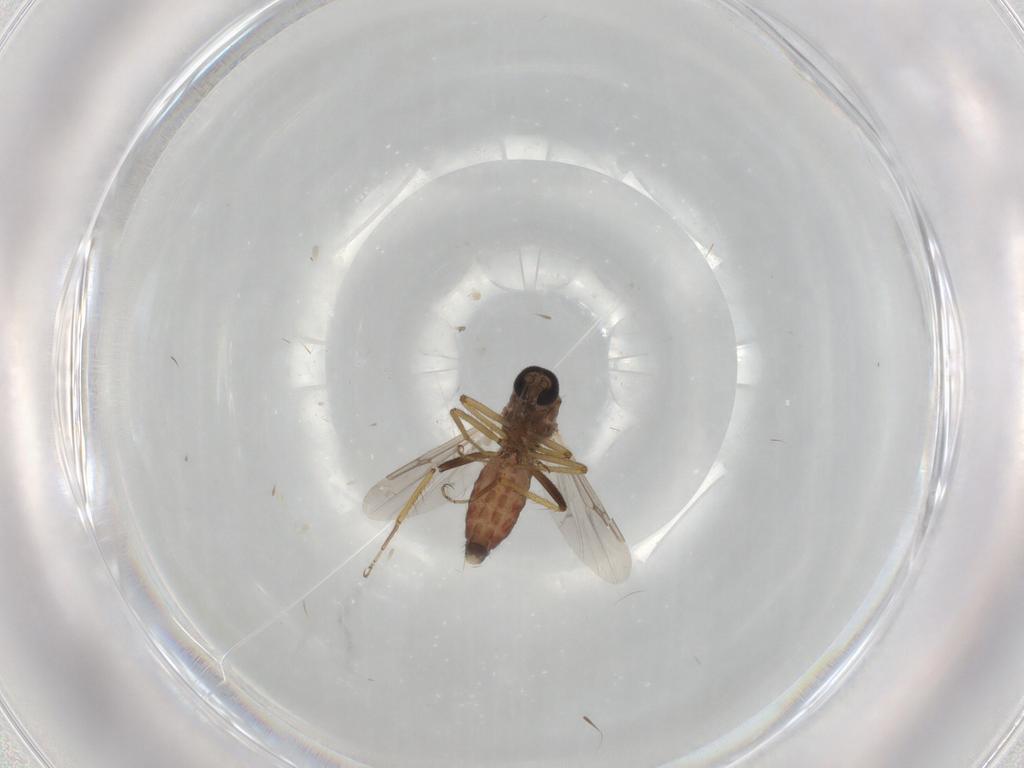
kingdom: Animalia
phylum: Arthropoda
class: Insecta
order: Diptera
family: Ceratopogonidae
